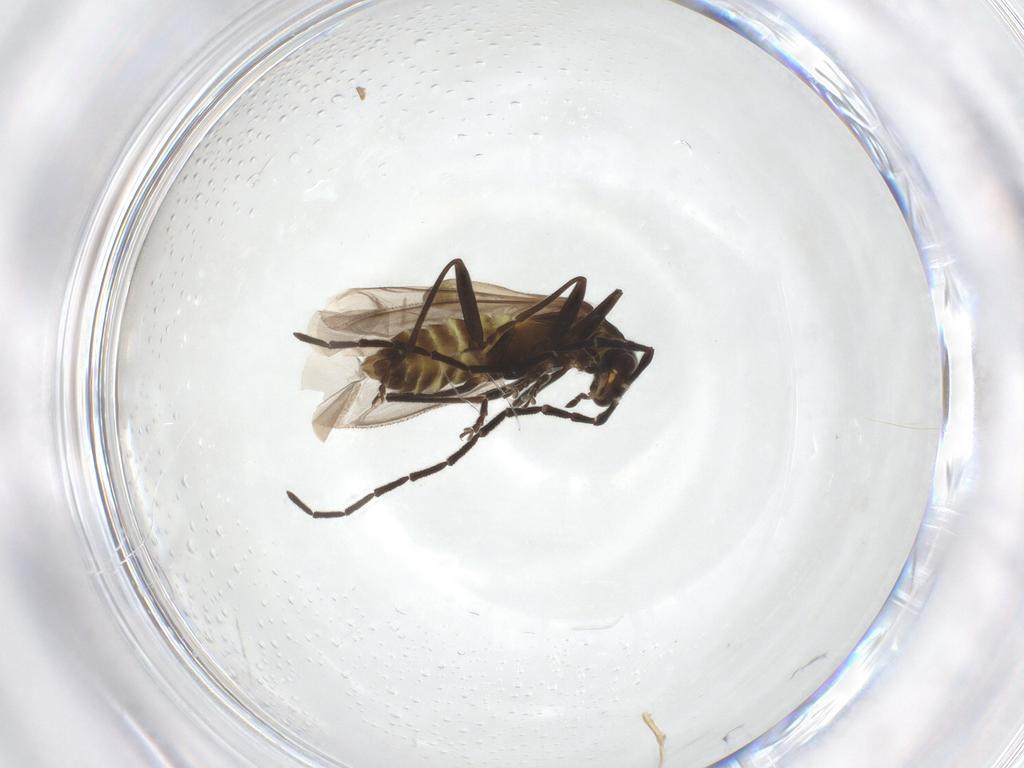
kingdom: Animalia
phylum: Arthropoda
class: Insecta
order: Coleoptera
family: Cantharidae
